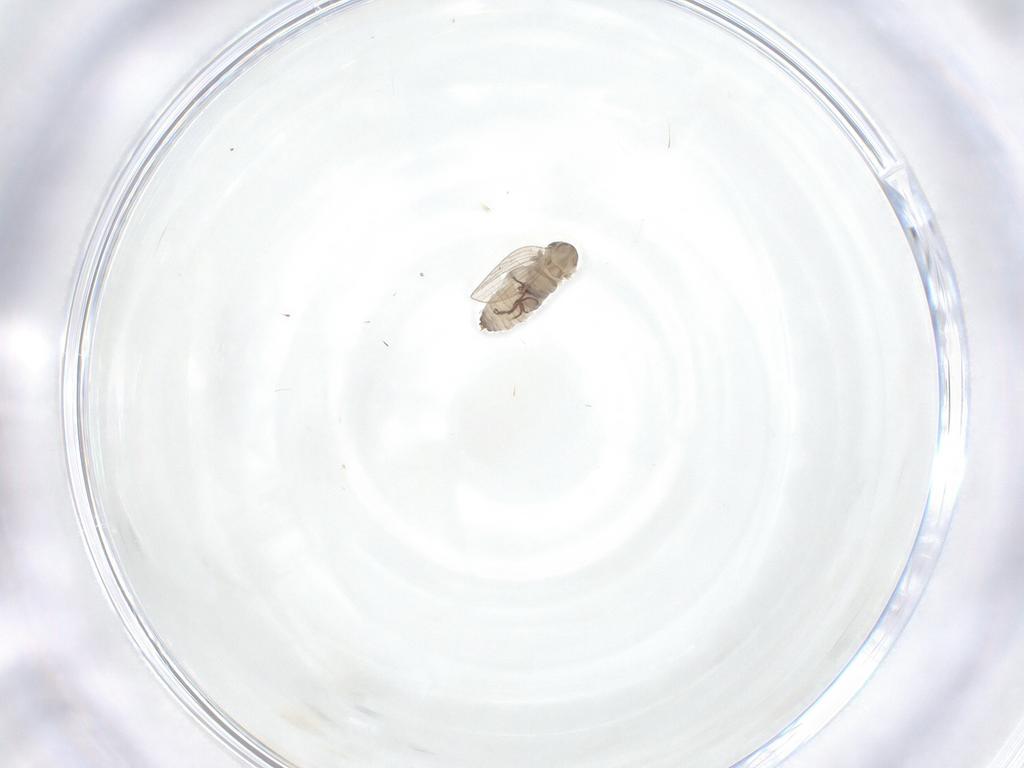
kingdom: Animalia
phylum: Arthropoda
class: Insecta
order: Diptera
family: Psychodidae
